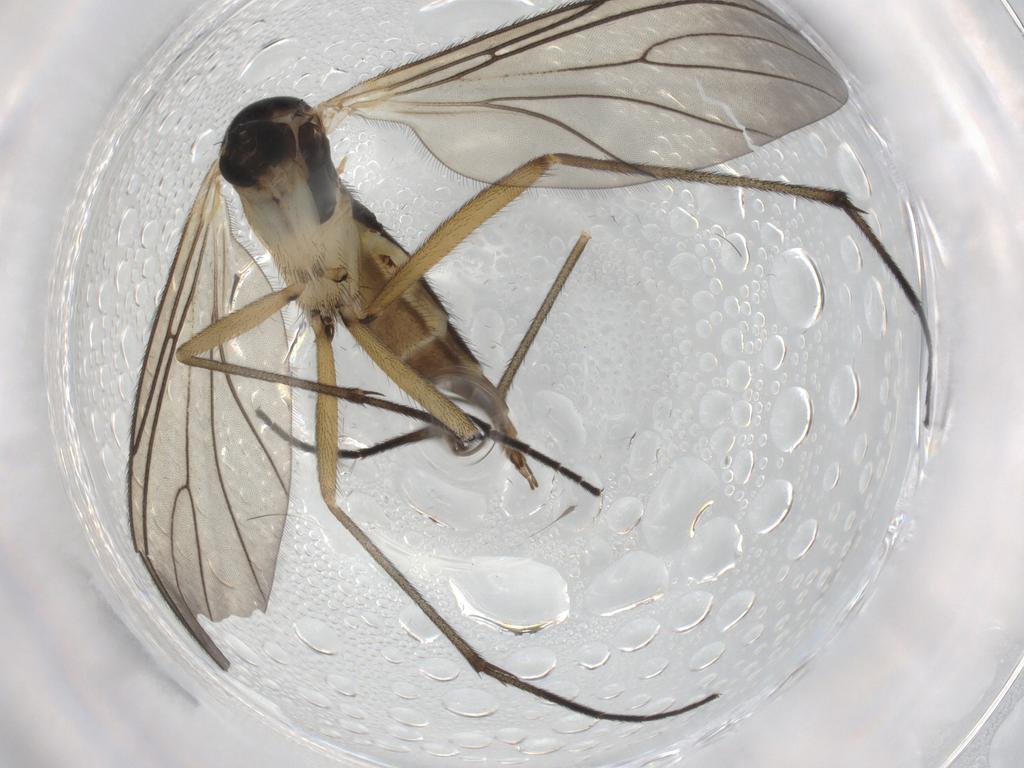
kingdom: Animalia
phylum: Arthropoda
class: Insecta
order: Diptera
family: Sciaridae
